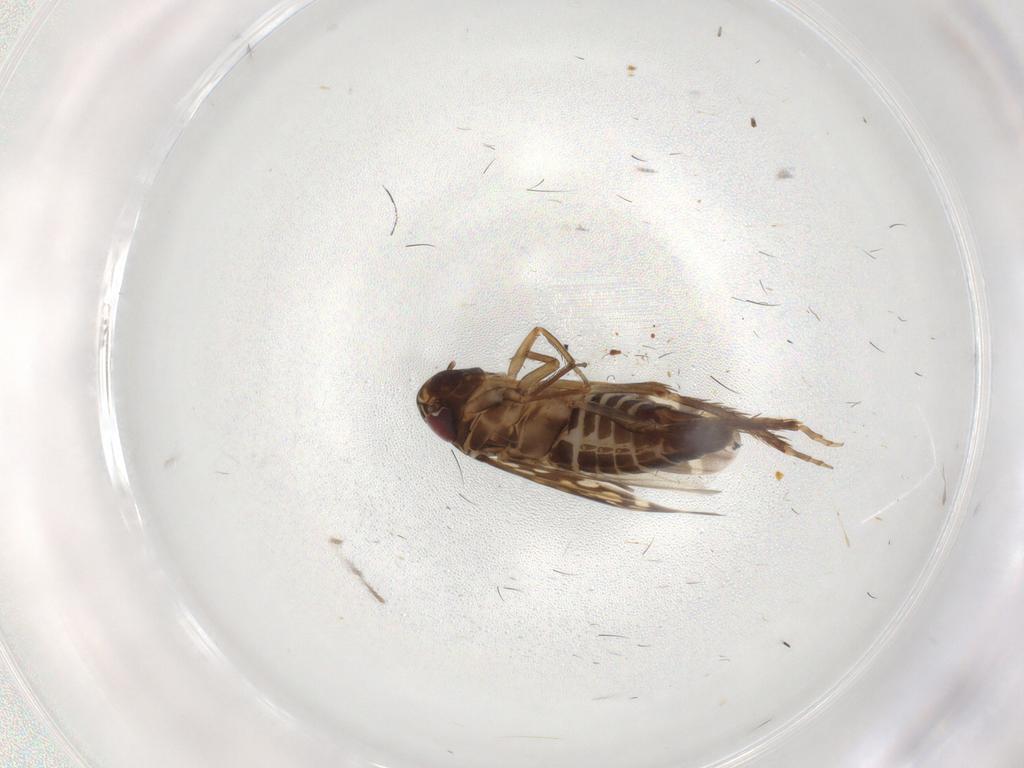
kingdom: Animalia
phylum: Arthropoda
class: Insecta
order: Hemiptera
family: Cicadellidae
